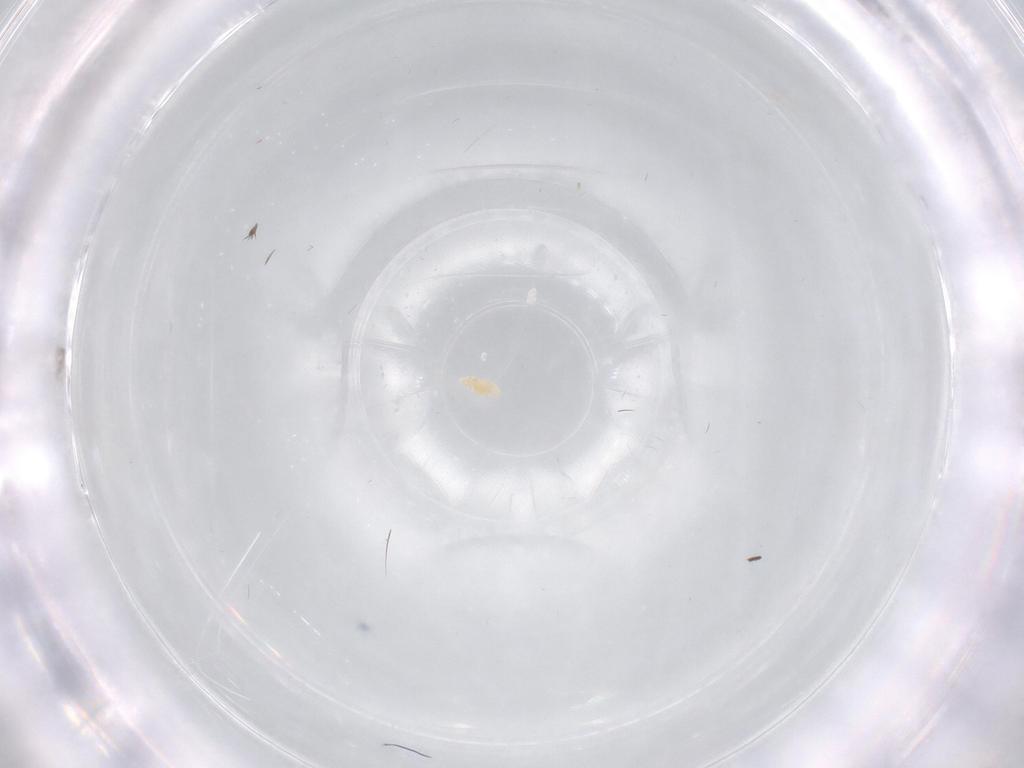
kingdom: Animalia
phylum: Arthropoda
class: Insecta
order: Diptera
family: Phoridae
